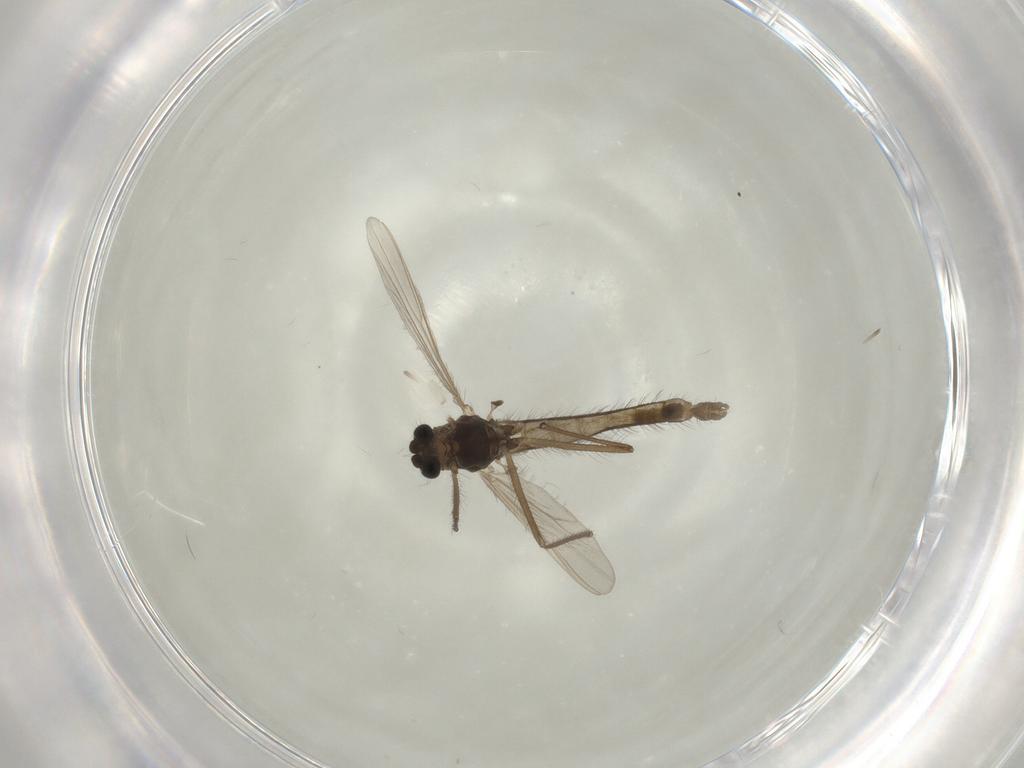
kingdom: Animalia
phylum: Arthropoda
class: Insecta
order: Diptera
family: Chironomidae
